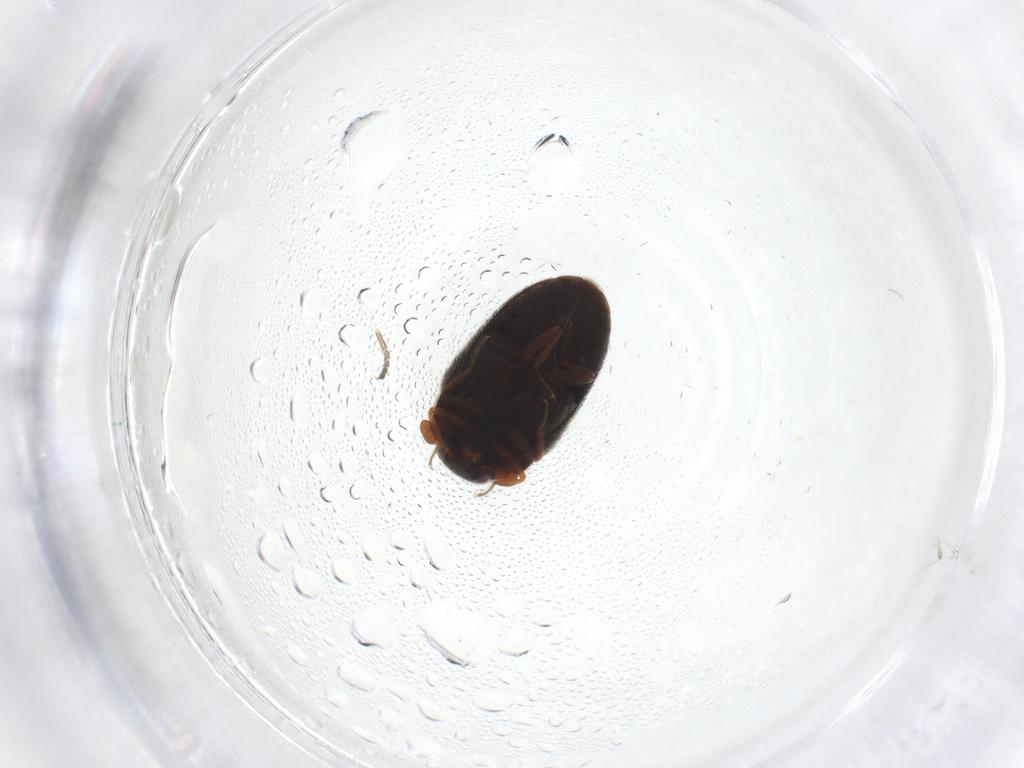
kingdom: Animalia
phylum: Arthropoda
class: Insecta
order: Coleoptera
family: Dermestidae
